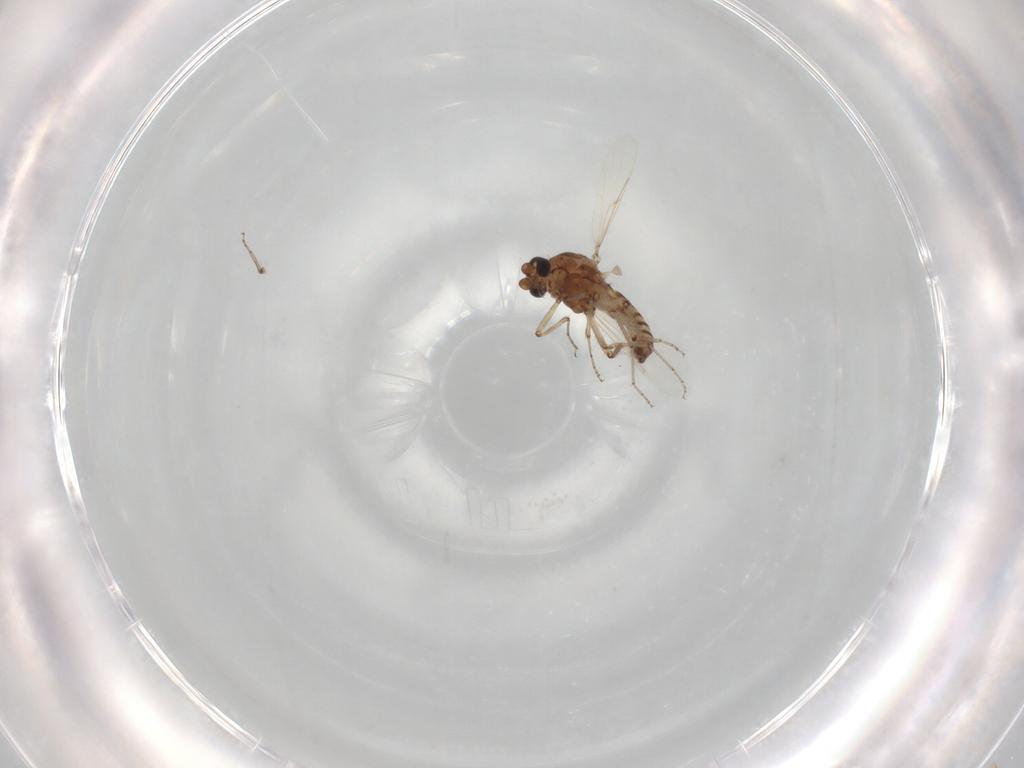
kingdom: Animalia
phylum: Arthropoda
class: Insecta
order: Diptera
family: Ceratopogonidae
